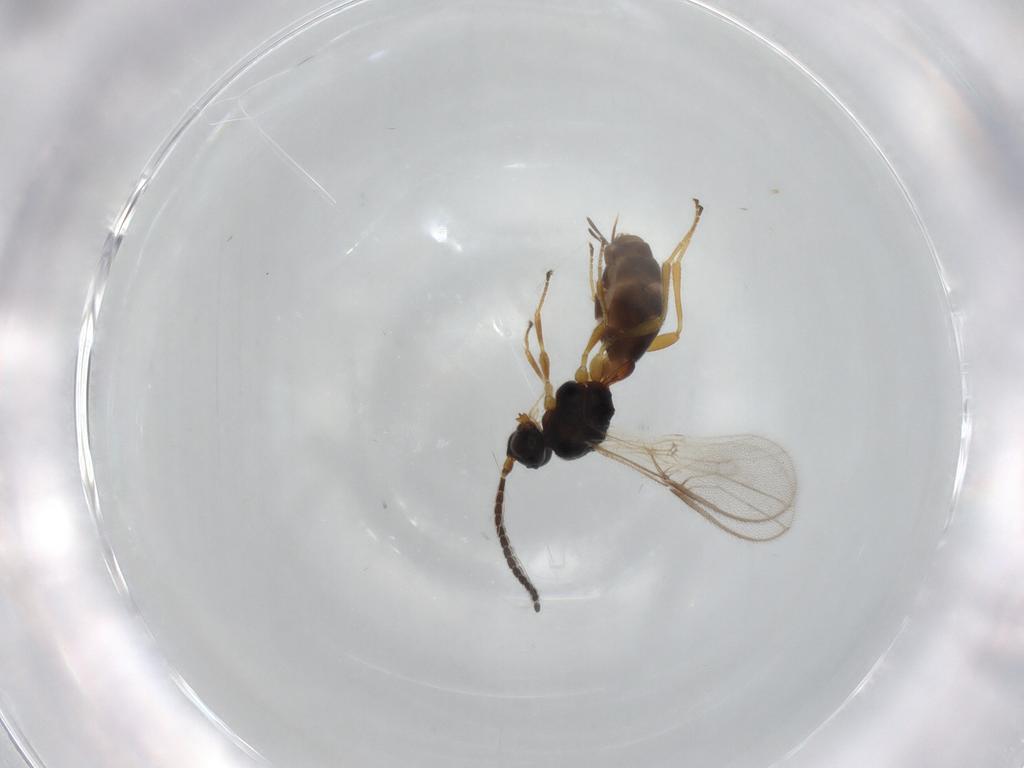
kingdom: Animalia
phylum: Arthropoda
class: Insecta
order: Hymenoptera
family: Braconidae
